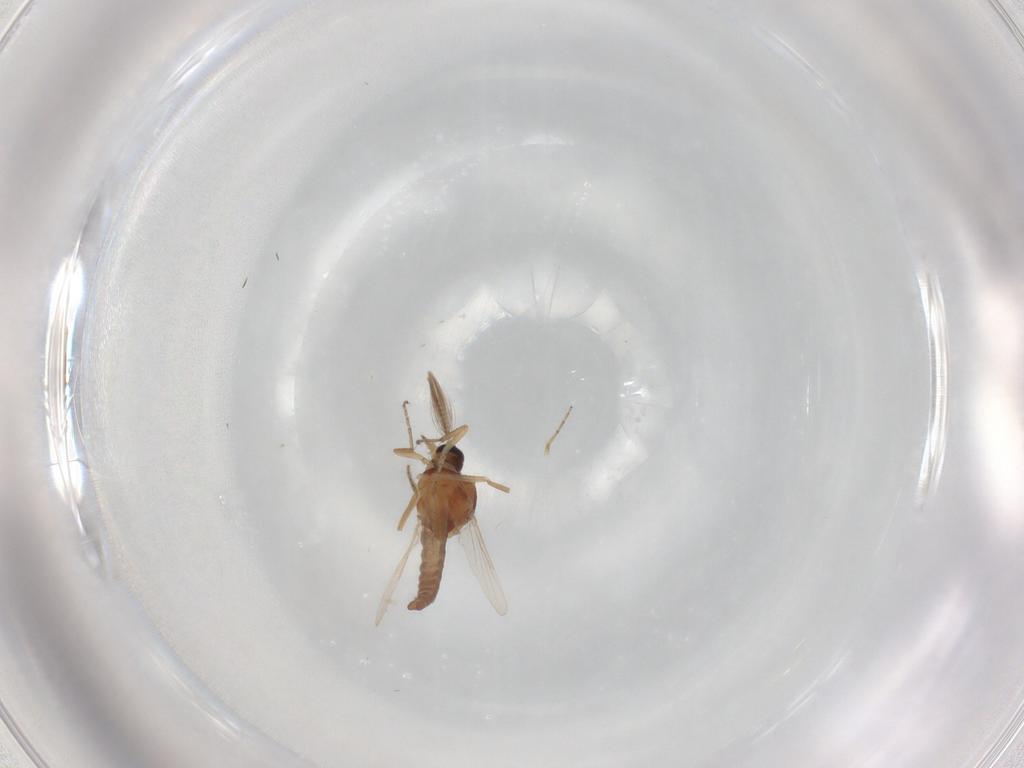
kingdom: Animalia
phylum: Arthropoda
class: Insecta
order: Diptera
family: Ceratopogonidae
